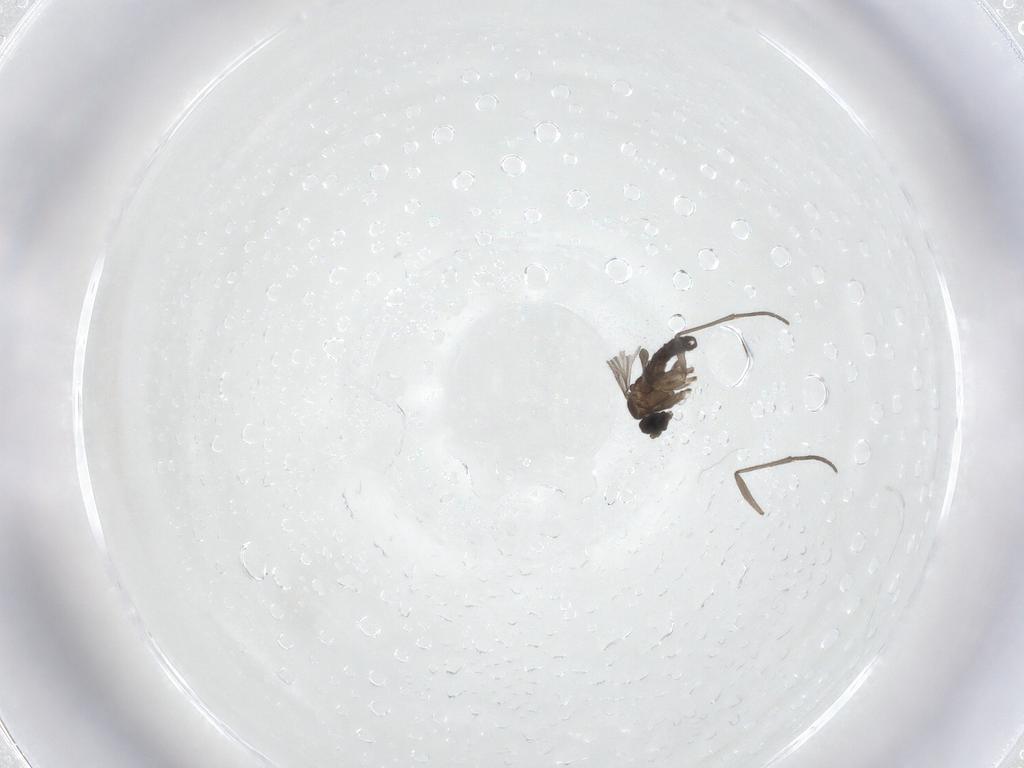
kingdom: Animalia
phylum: Arthropoda
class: Insecta
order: Diptera
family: Sciaridae
